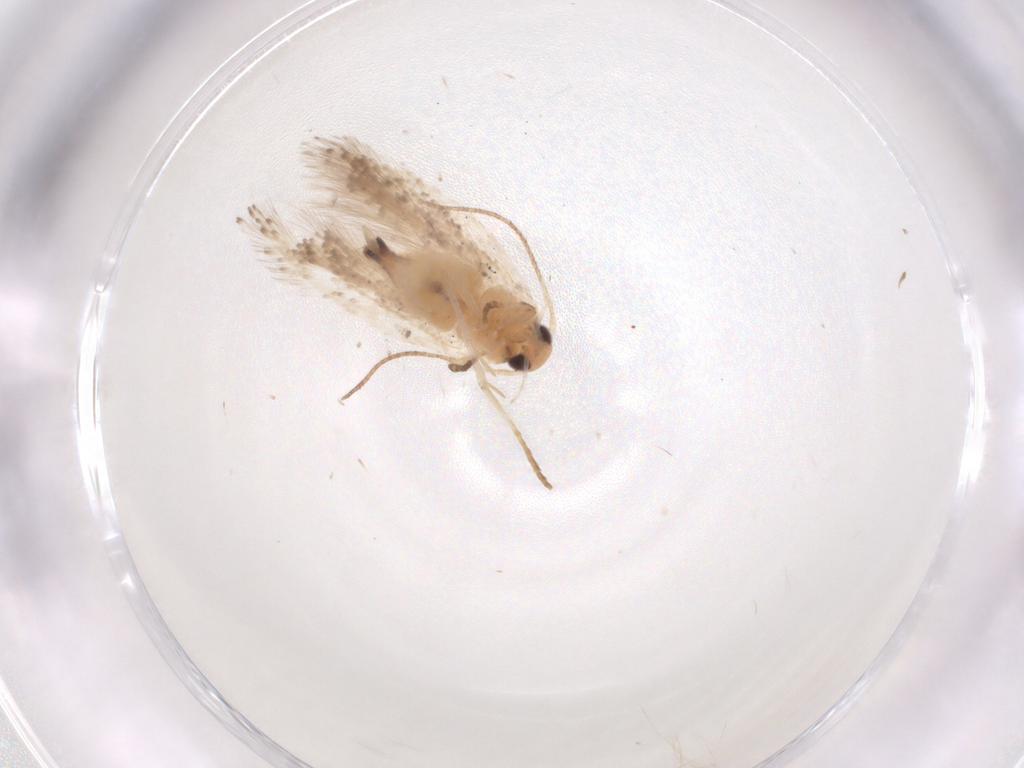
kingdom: Animalia
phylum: Arthropoda
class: Insecta
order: Lepidoptera
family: Gelechiidae
